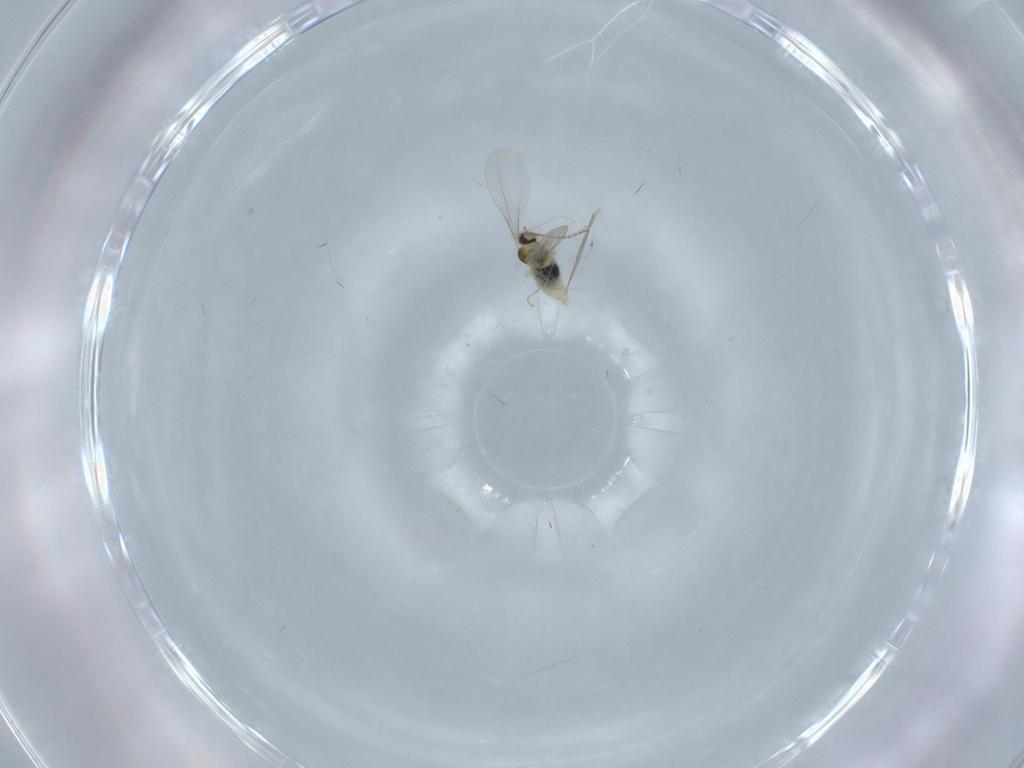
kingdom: Animalia
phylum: Arthropoda
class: Insecta
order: Diptera
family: Cecidomyiidae
